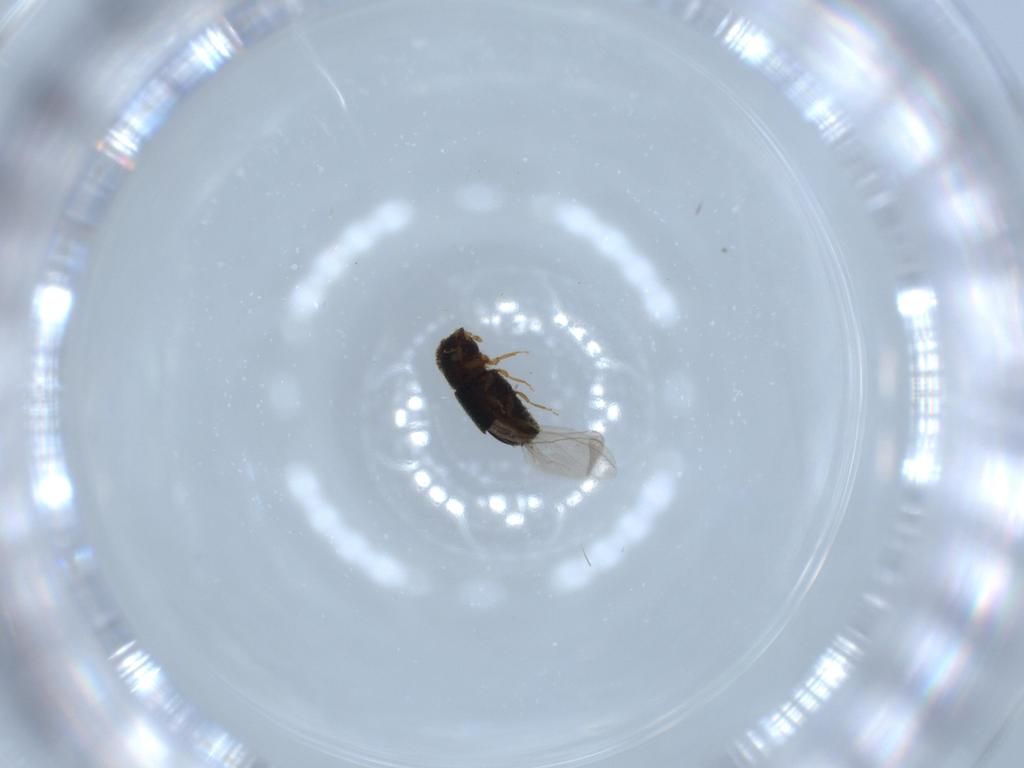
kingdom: Animalia
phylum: Arthropoda
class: Insecta
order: Coleoptera
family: Curculionidae
